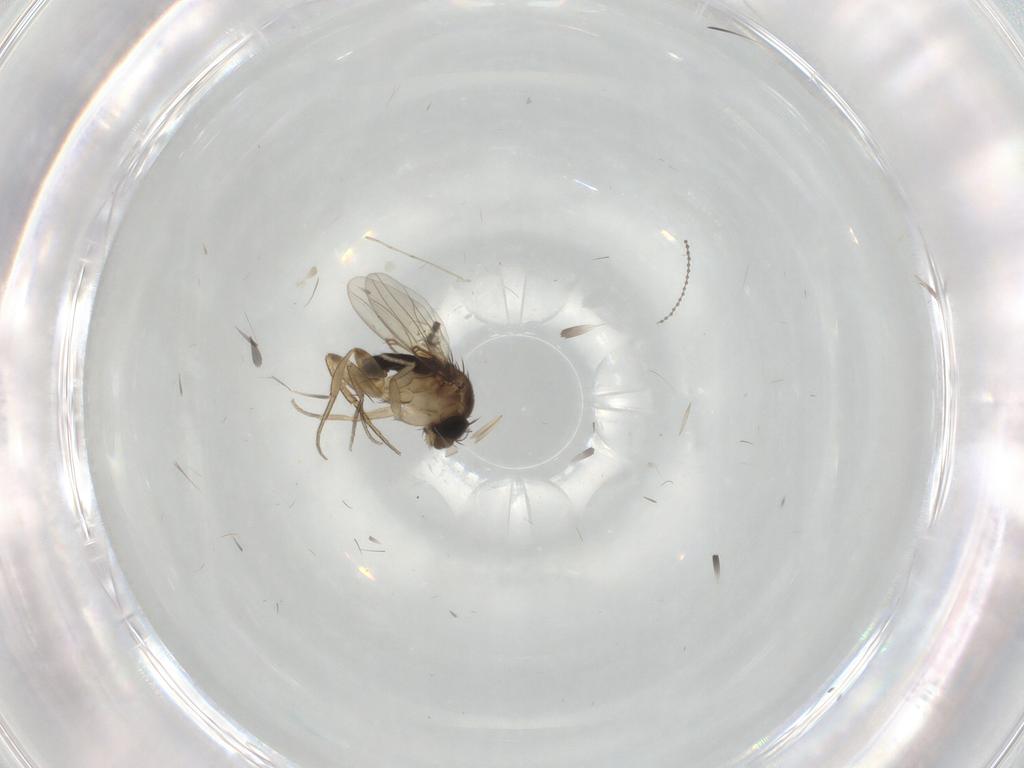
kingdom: Animalia
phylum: Arthropoda
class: Insecta
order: Diptera
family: Phoridae
